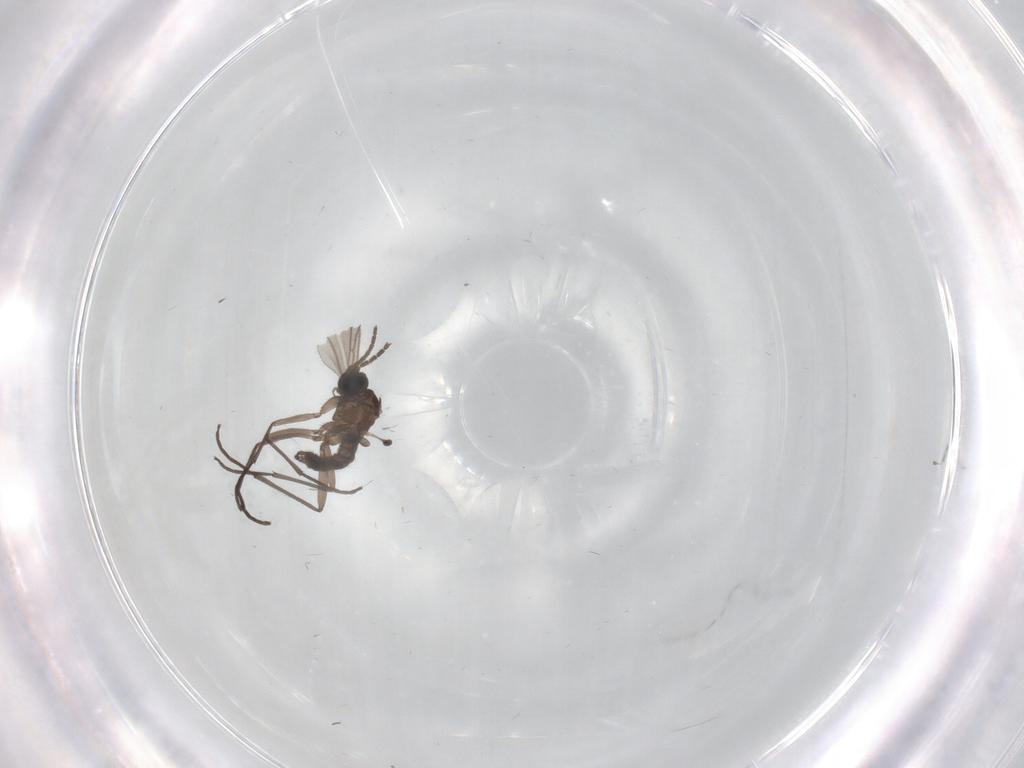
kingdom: Animalia
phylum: Arthropoda
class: Insecta
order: Diptera
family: Sciaridae
